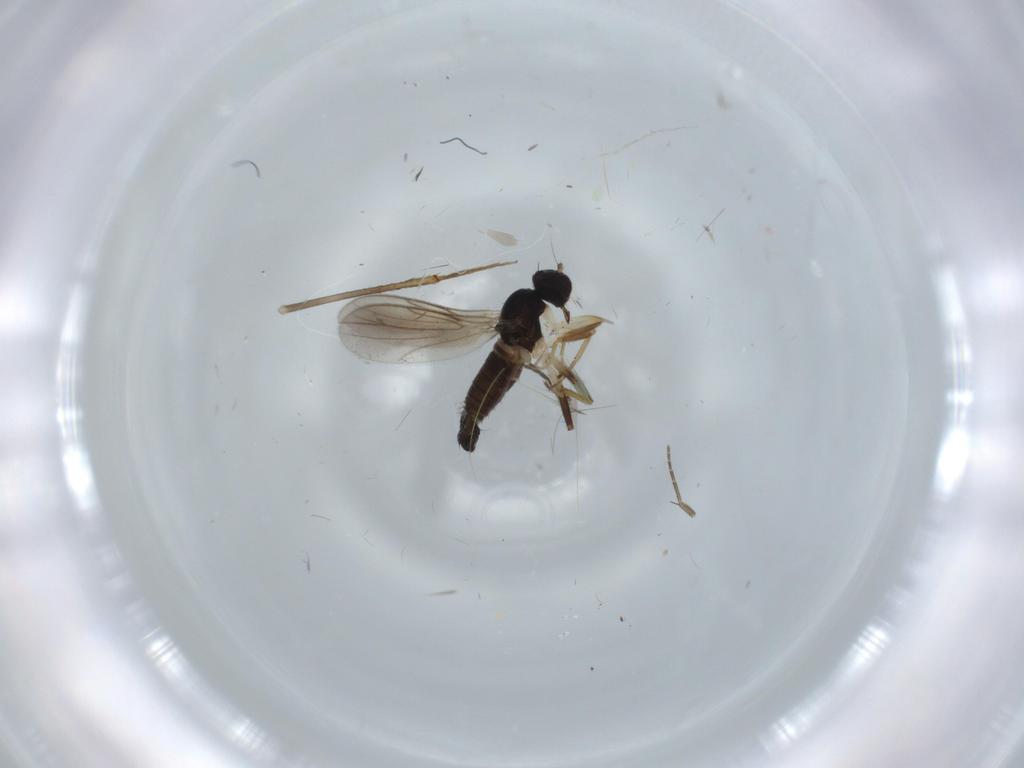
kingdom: Animalia
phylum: Arthropoda
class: Insecta
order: Diptera
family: Hybotidae
